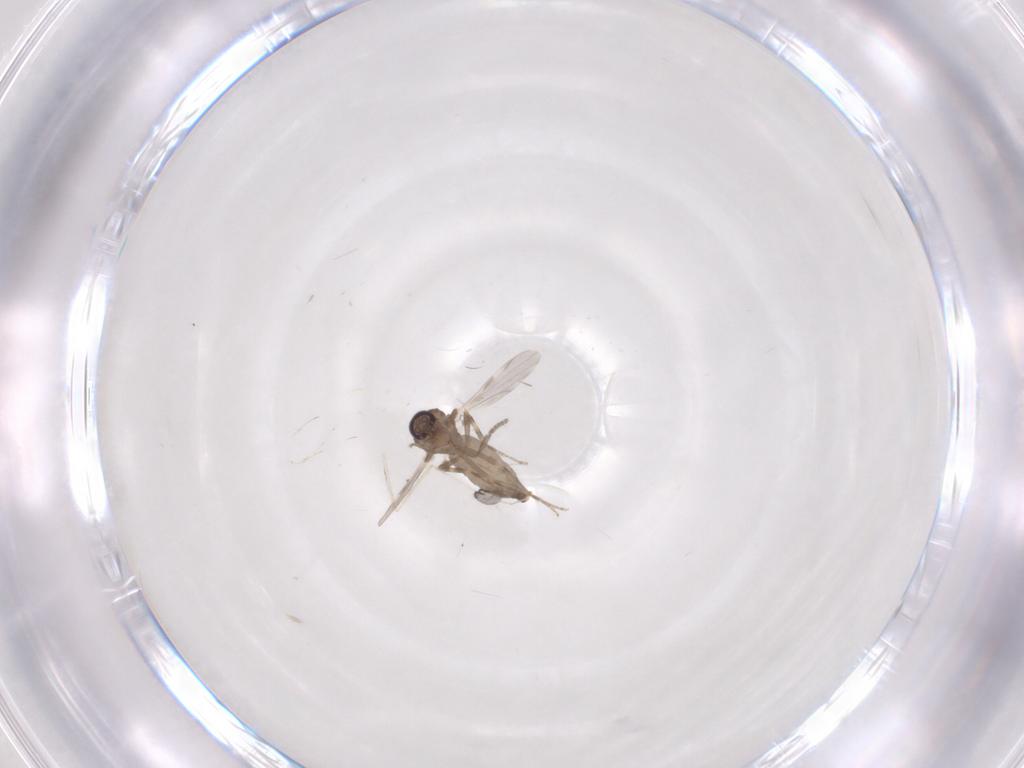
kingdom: Animalia
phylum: Arthropoda
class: Insecta
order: Diptera
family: Ceratopogonidae
